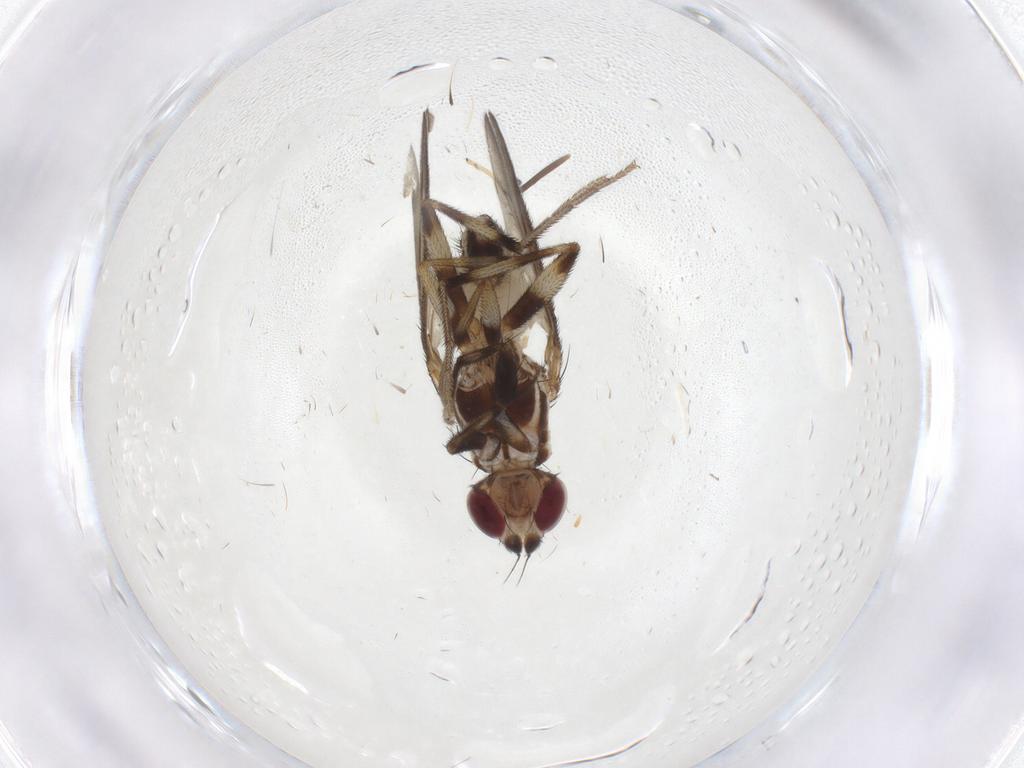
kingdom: Animalia
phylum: Arthropoda
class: Insecta
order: Diptera
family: Pseudopomyzidae
